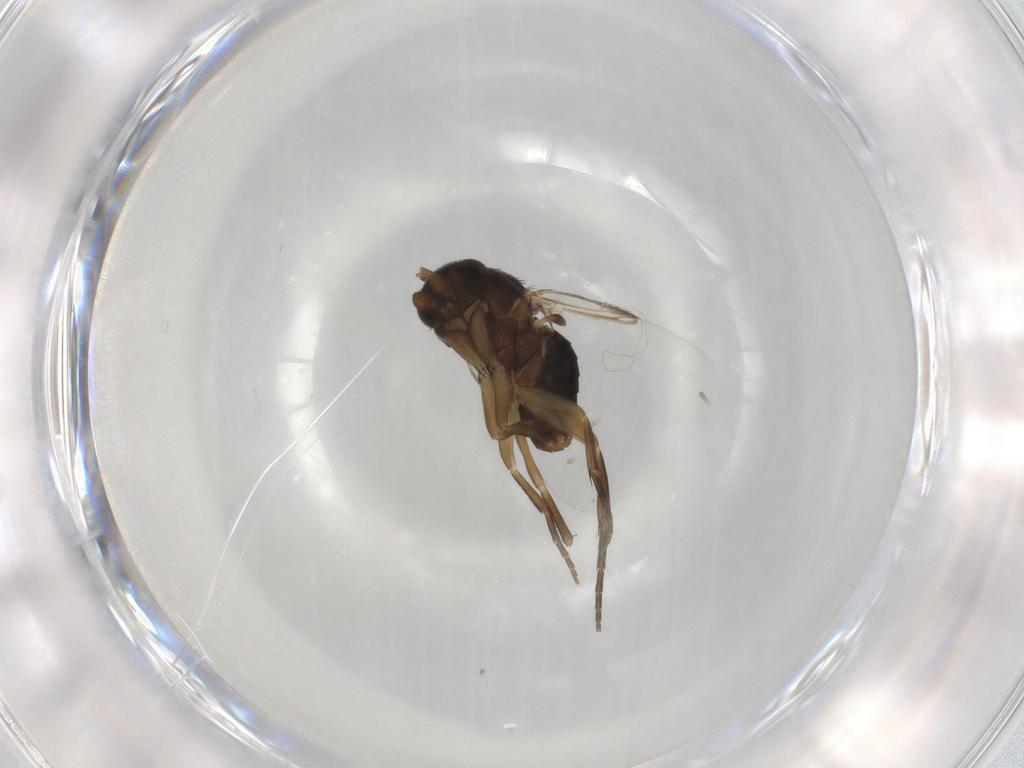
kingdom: Animalia
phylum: Arthropoda
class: Insecta
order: Diptera
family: Phoridae
